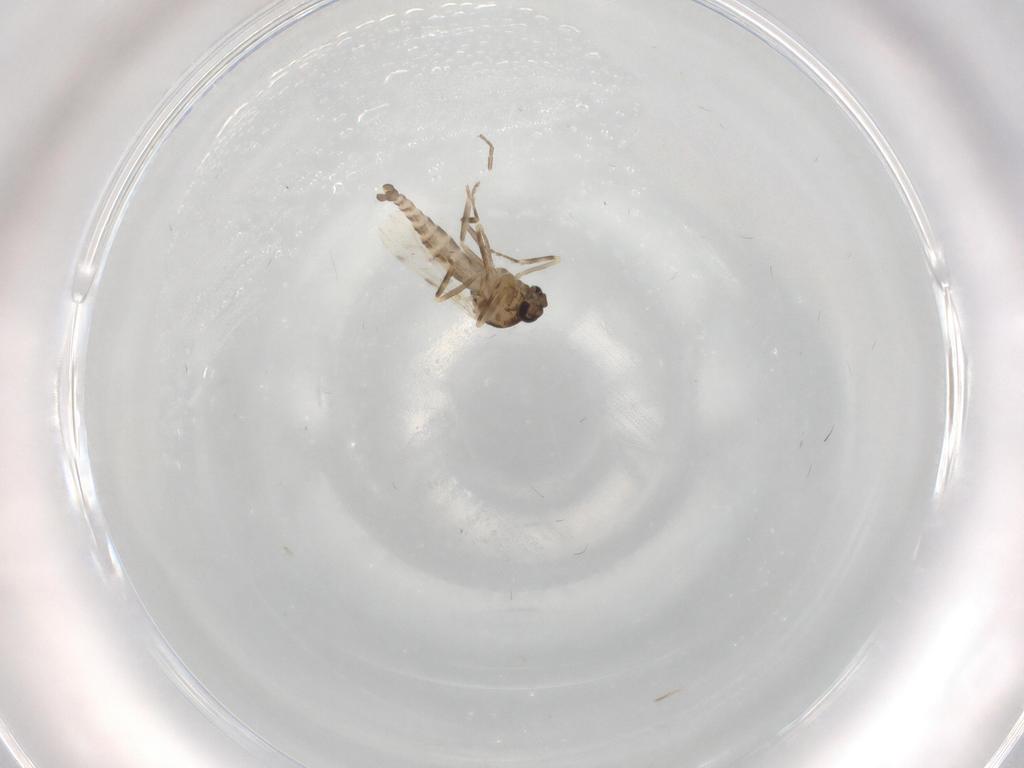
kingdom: Animalia
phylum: Arthropoda
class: Insecta
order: Diptera
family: Ceratopogonidae
